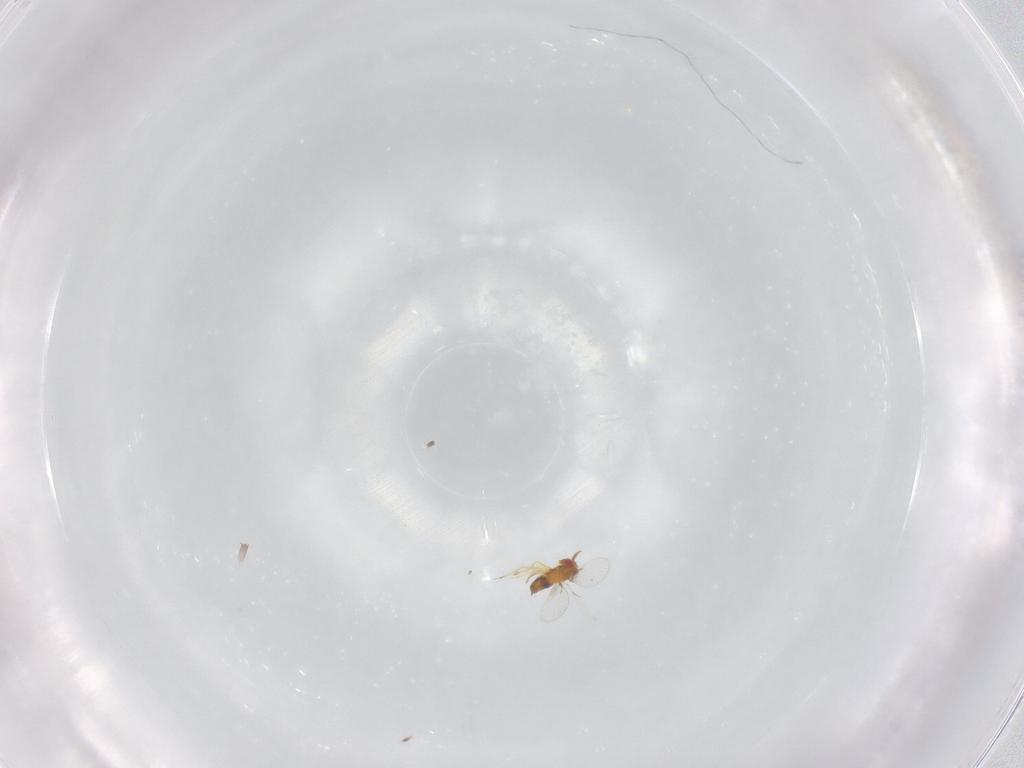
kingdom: Animalia
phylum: Arthropoda
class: Insecta
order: Hymenoptera
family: Trichogrammatidae
